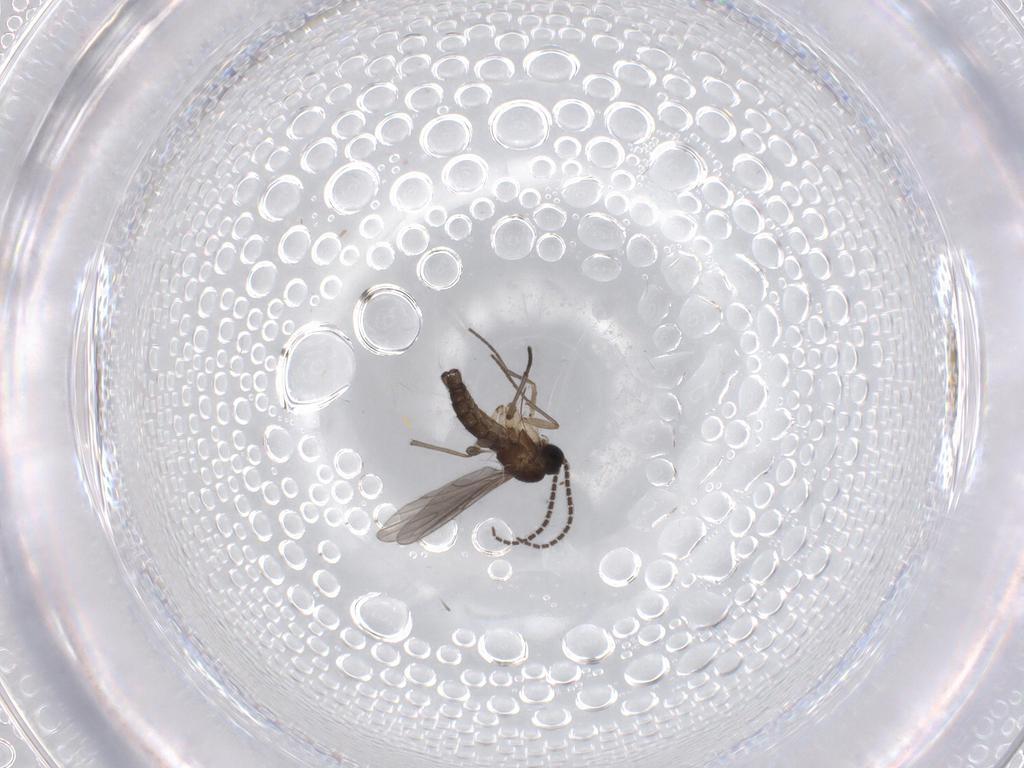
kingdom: Animalia
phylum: Arthropoda
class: Insecta
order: Diptera
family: Sciaridae
